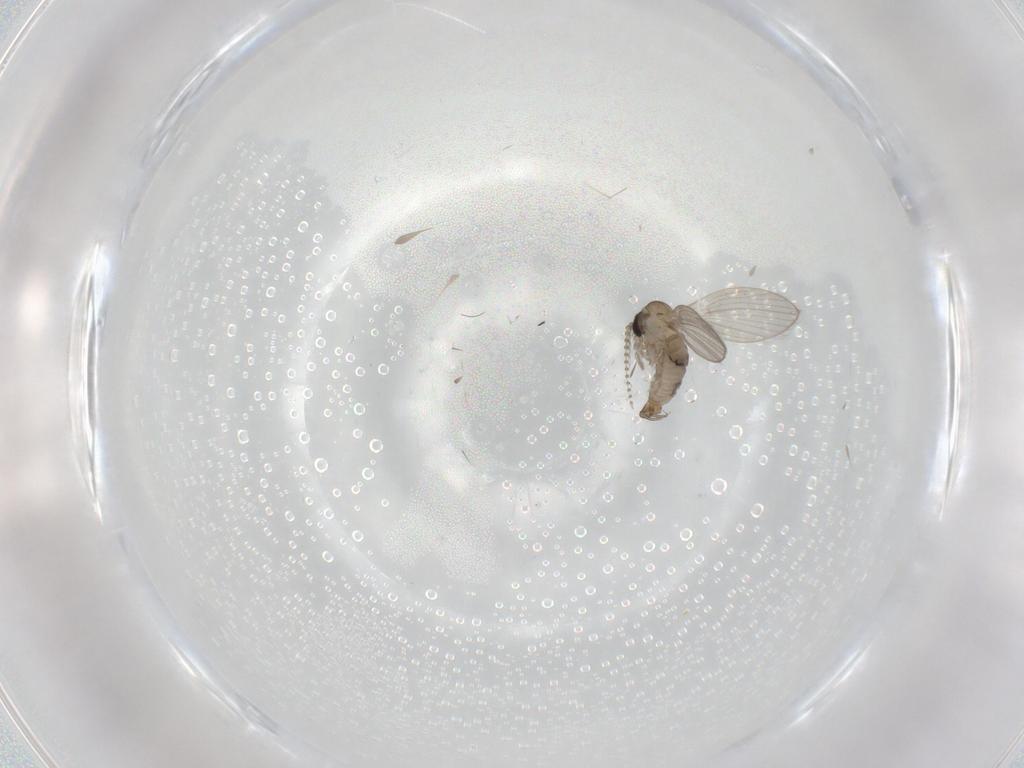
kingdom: Animalia
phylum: Arthropoda
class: Insecta
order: Diptera
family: Psychodidae
